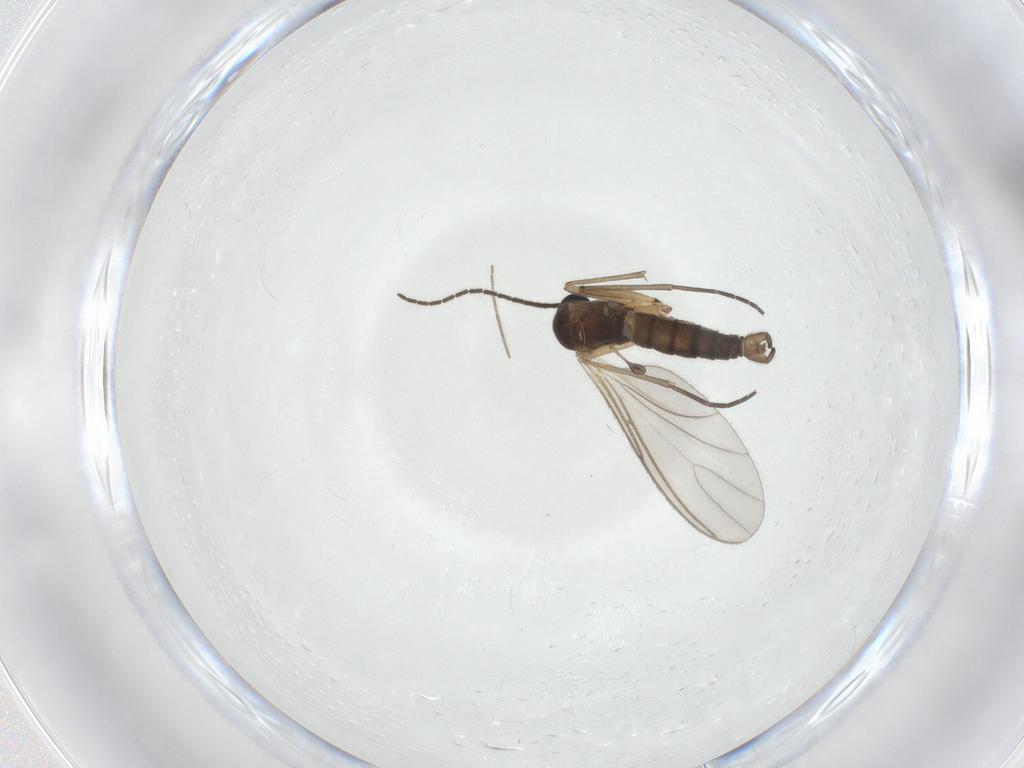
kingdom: Animalia
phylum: Arthropoda
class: Insecta
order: Diptera
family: Sciaridae
